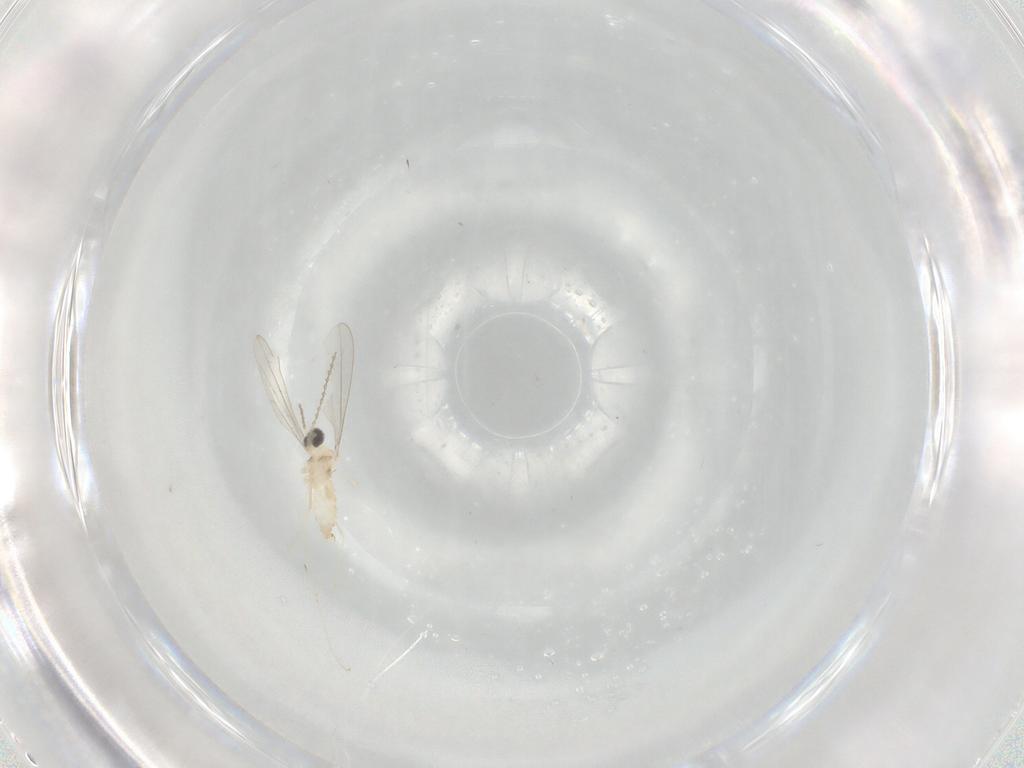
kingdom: Animalia
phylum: Arthropoda
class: Insecta
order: Diptera
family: Cecidomyiidae
